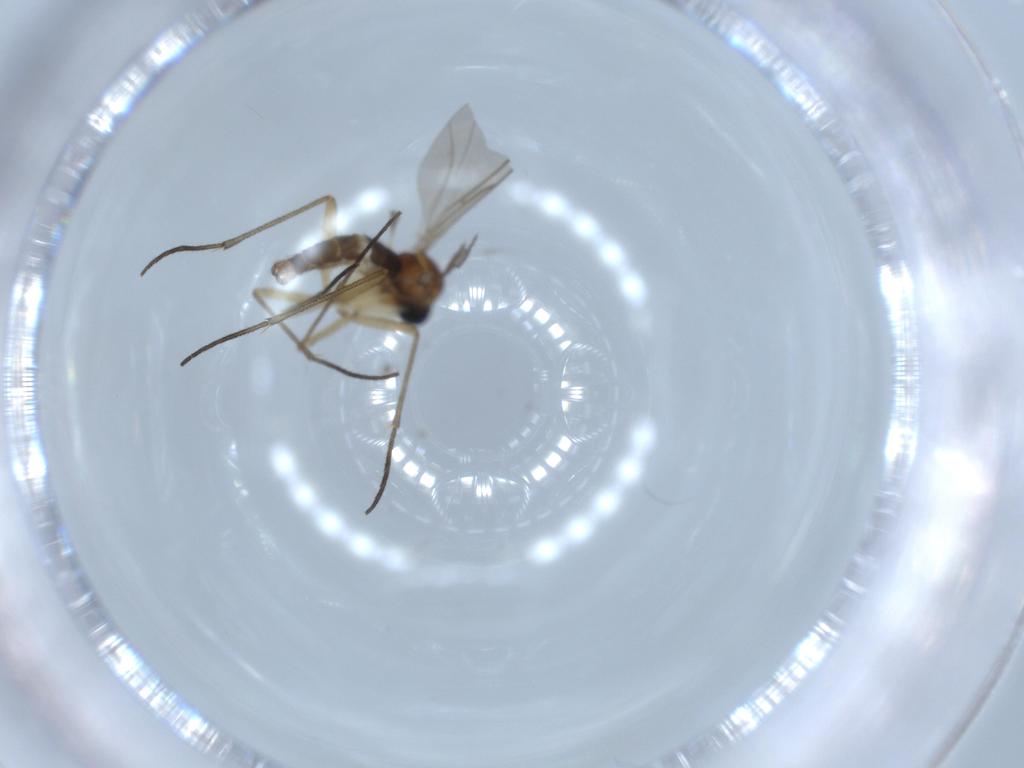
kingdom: Animalia
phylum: Arthropoda
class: Insecta
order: Diptera
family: Sciaridae
